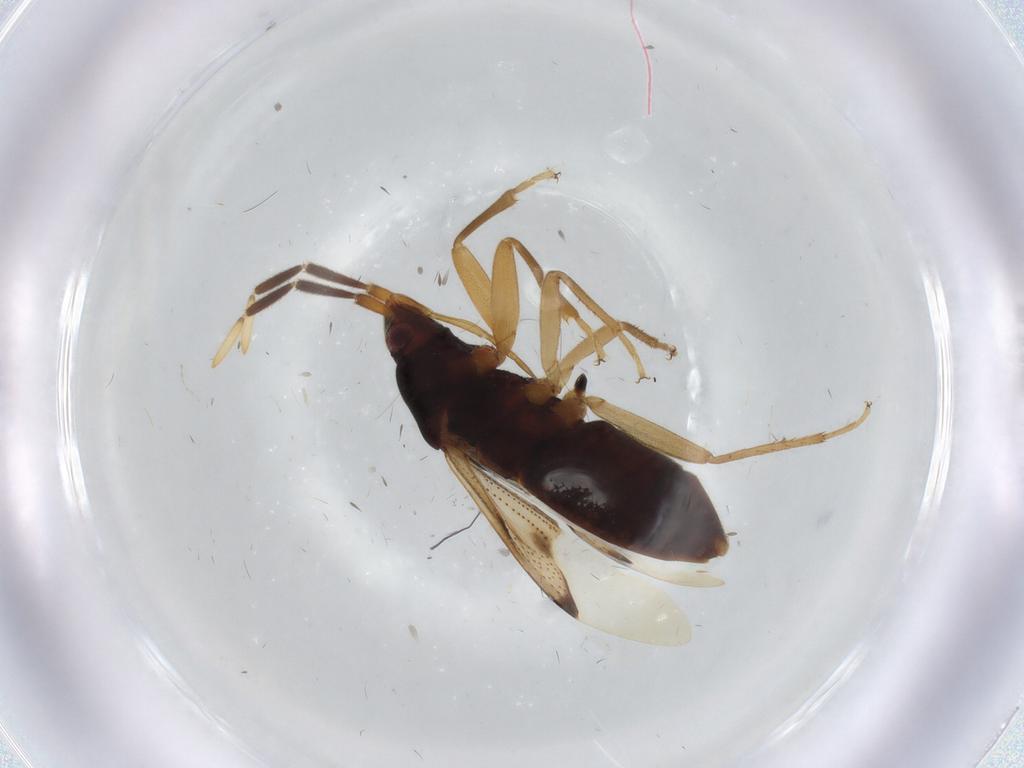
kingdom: Animalia
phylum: Arthropoda
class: Insecta
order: Hemiptera
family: Rhyparochromidae
